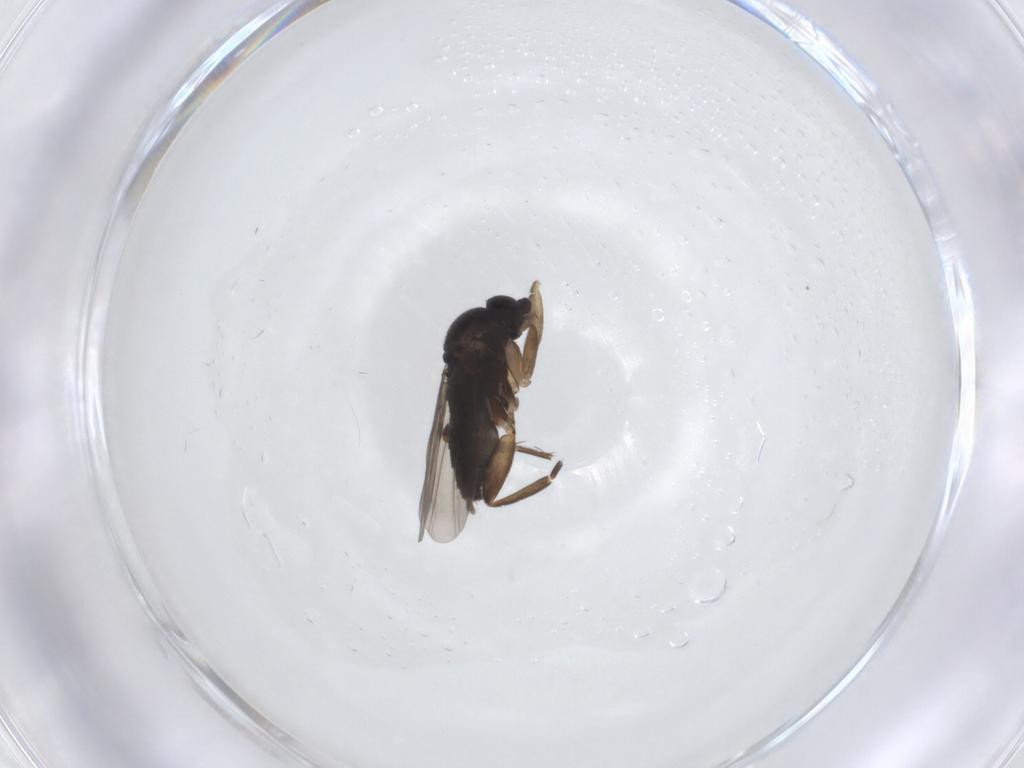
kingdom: Animalia
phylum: Arthropoda
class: Insecta
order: Diptera
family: Phoridae
